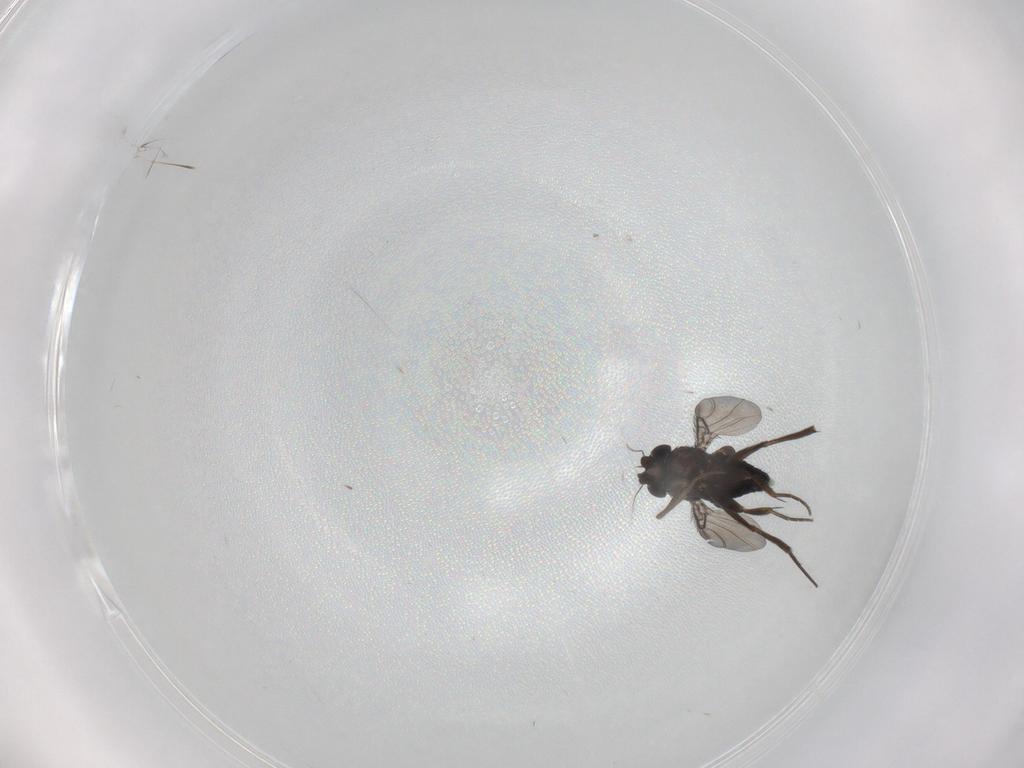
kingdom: Animalia
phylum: Arthropoda
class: Insecta
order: Diptera
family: Phoridae
